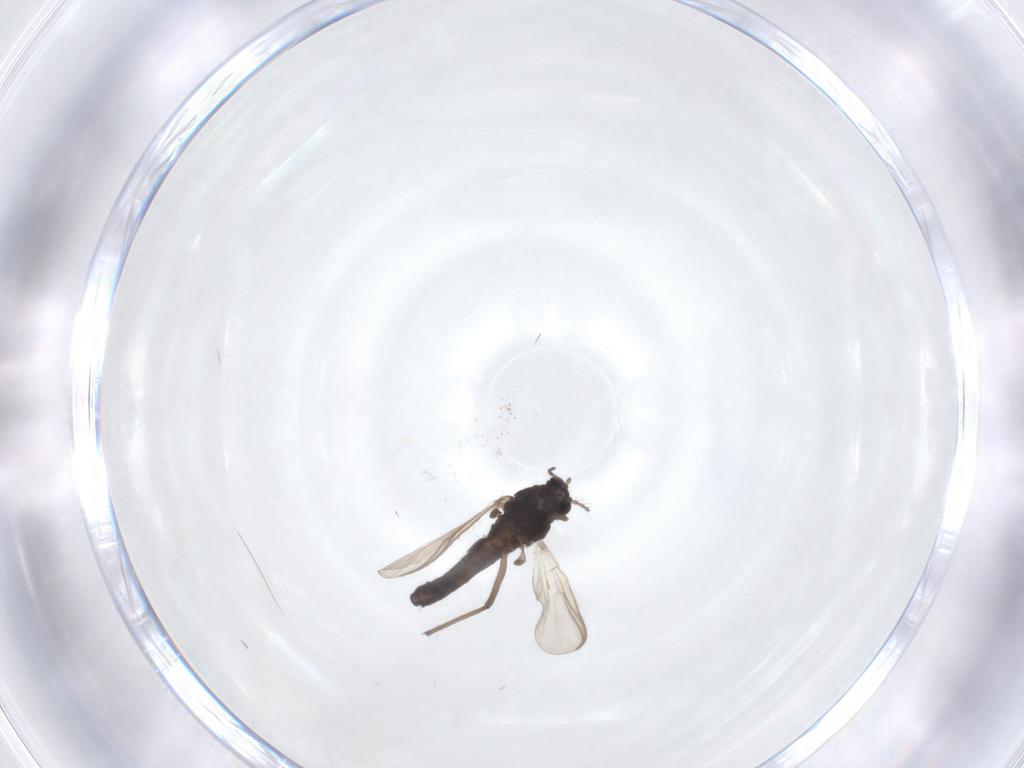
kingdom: Animalia
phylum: Arthropoda
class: Insecta
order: Diptera
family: Chironomidae
